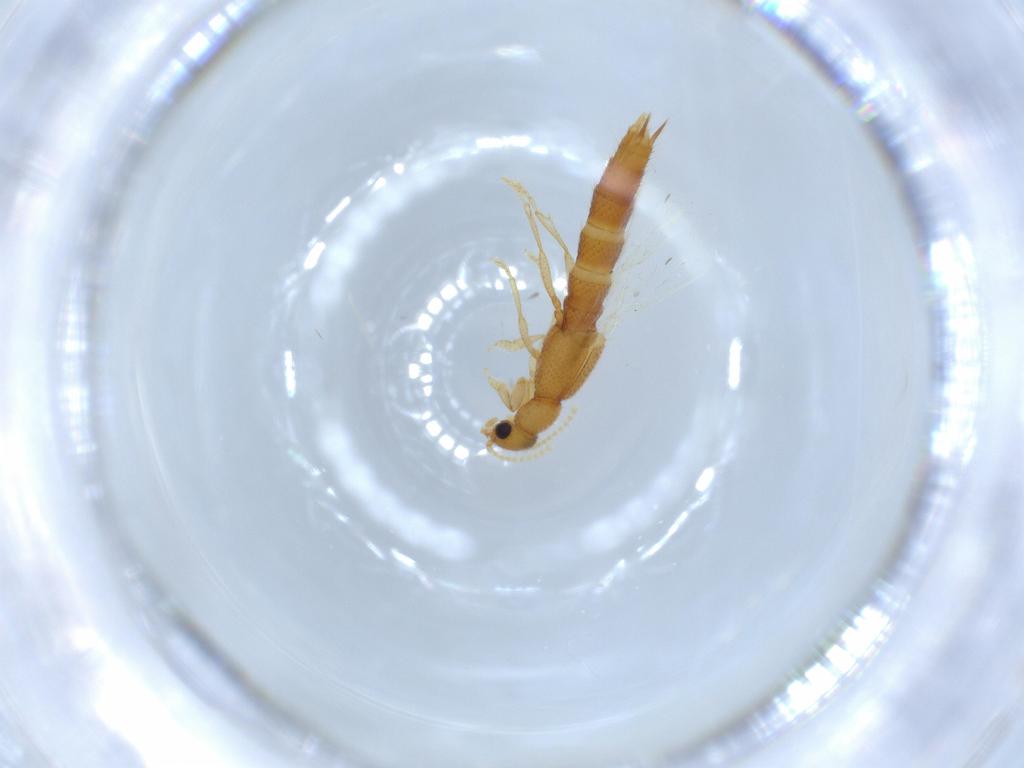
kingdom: Animalia
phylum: Arthropoda
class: Insecta
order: Coleoptera
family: Staphylinidae
